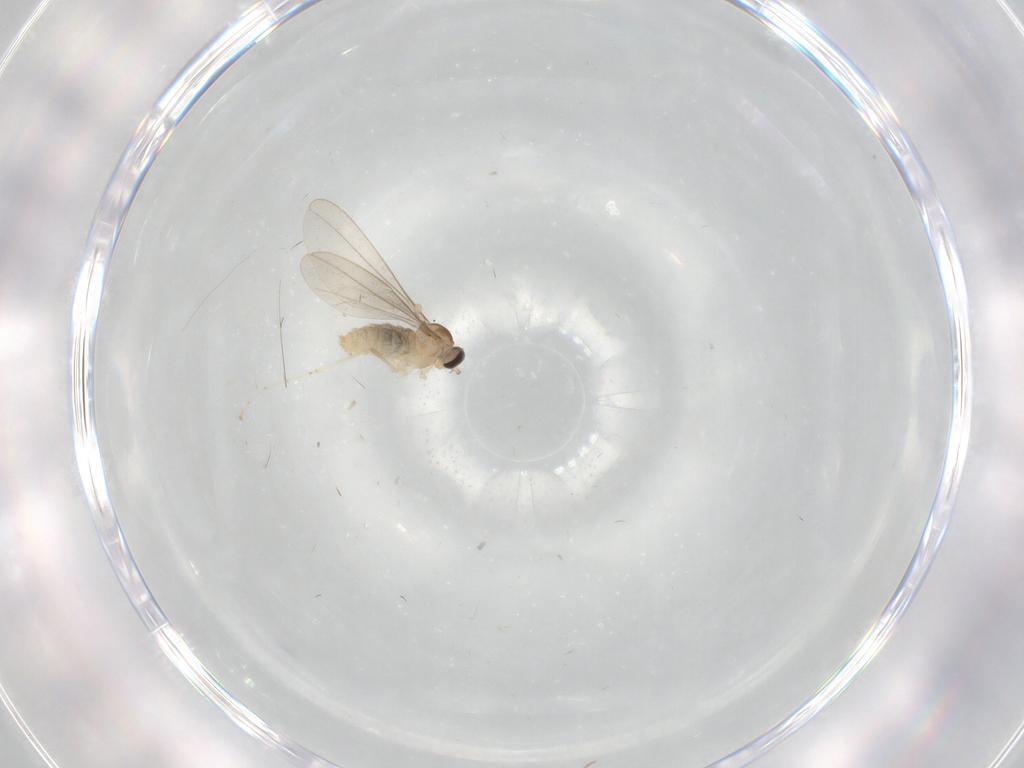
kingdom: Animalia
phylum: Arthropoda
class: Insecta
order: Diptera
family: Cecidomyiidae
